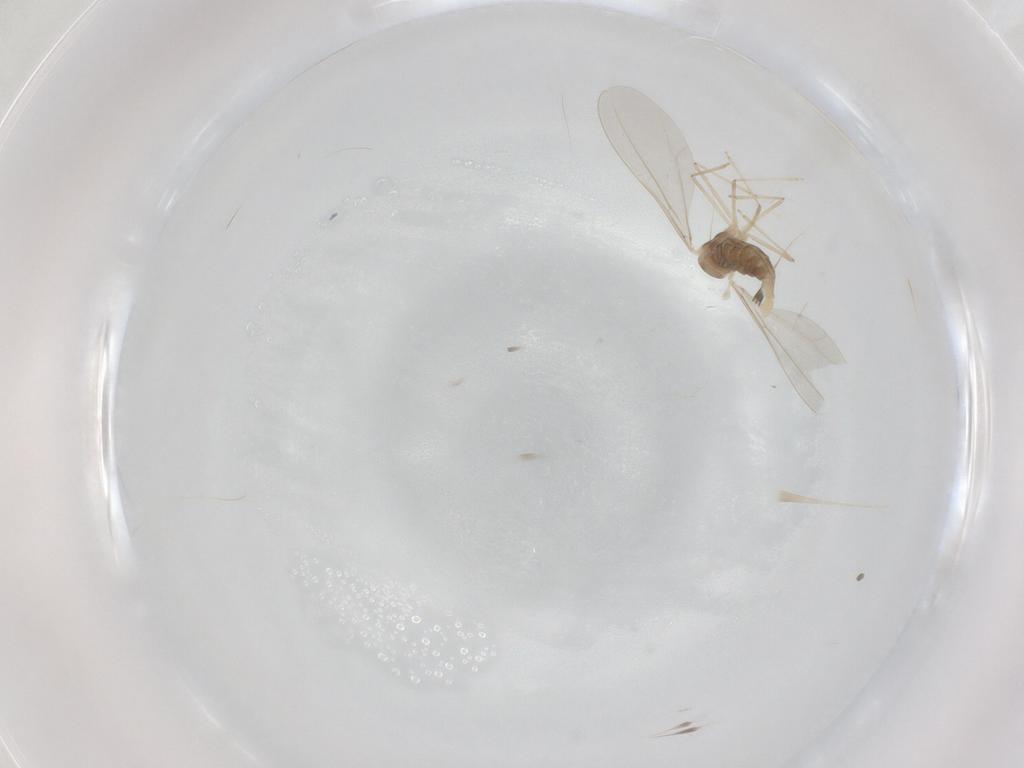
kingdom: Animalia
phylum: Arthropoda
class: Insecta
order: Diptera
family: Cecidomyiidae
